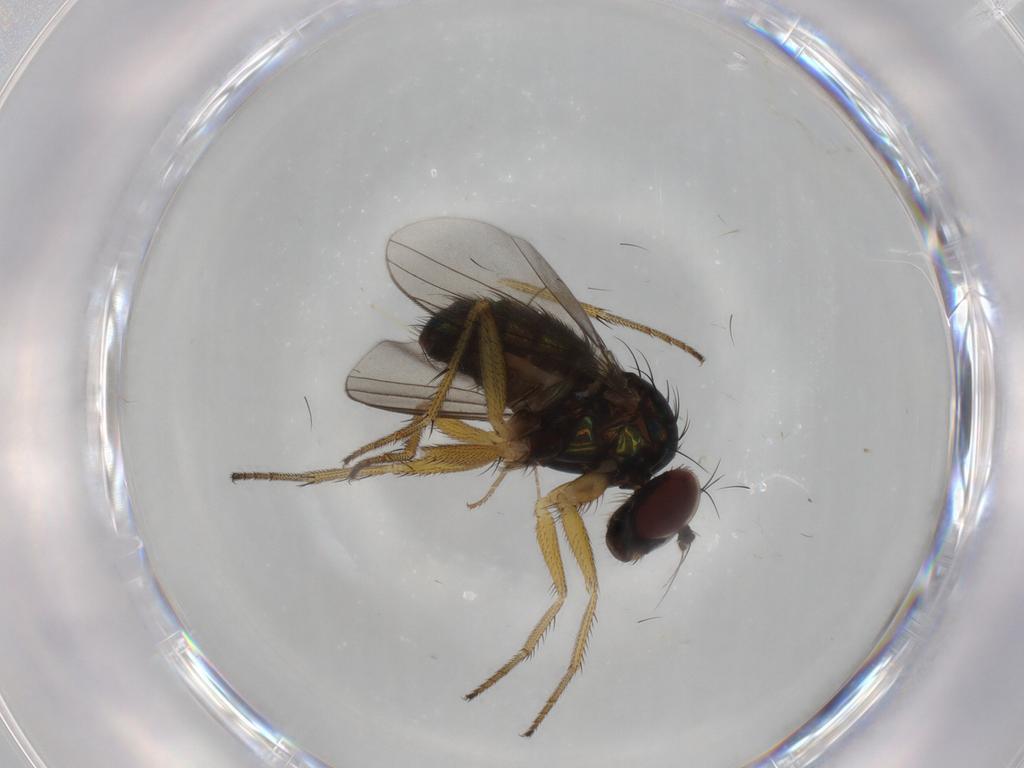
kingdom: Animalia
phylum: Arthropoda
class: Insecta
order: Diptera
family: Dolichopodidae
